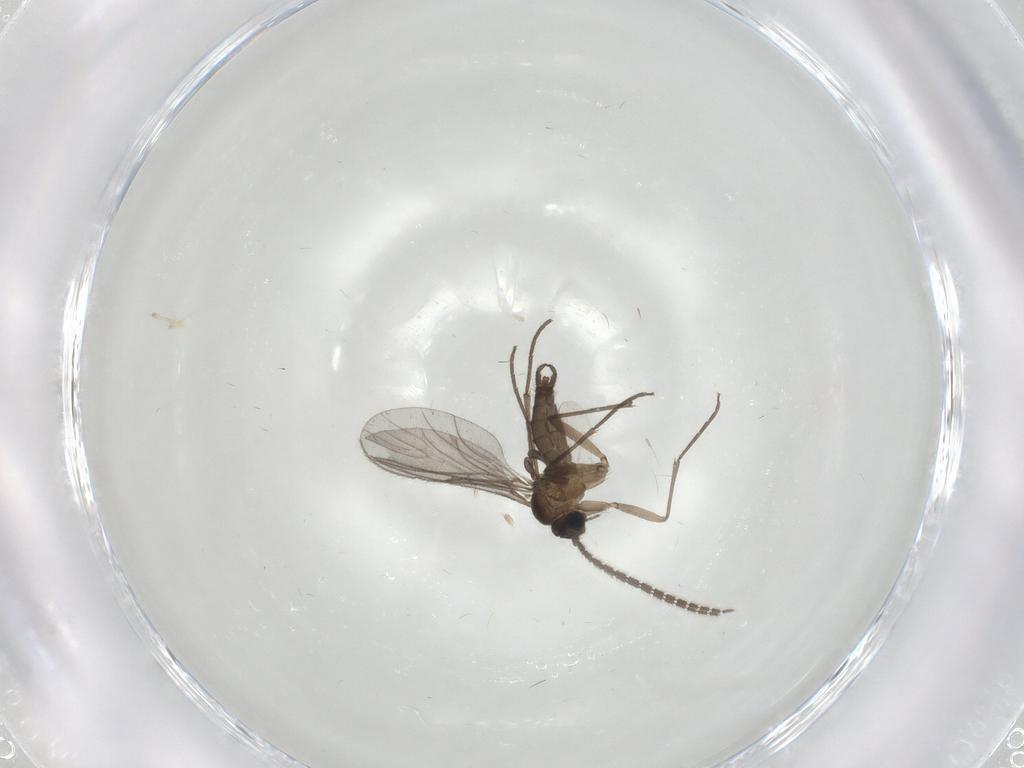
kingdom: Animalia
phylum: Arthropoda
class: Insecta
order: Diptera
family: Chironomidae
